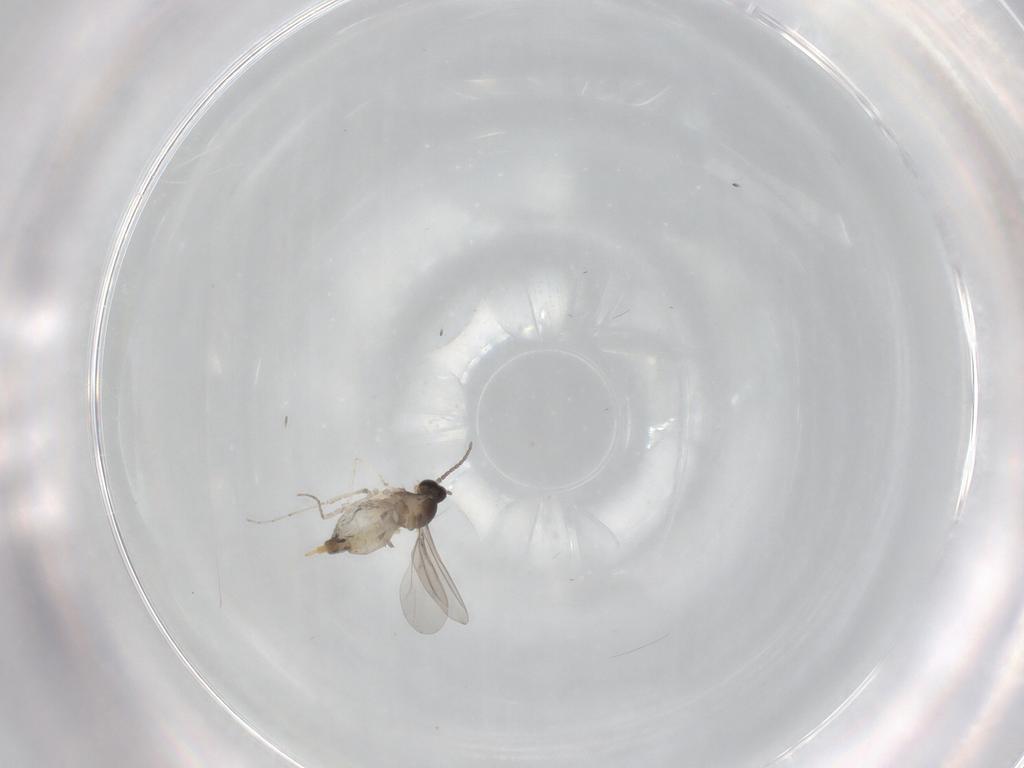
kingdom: Animalia
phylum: Arthropoda
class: Insecta
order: Diptera
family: Cecidomyiidae
